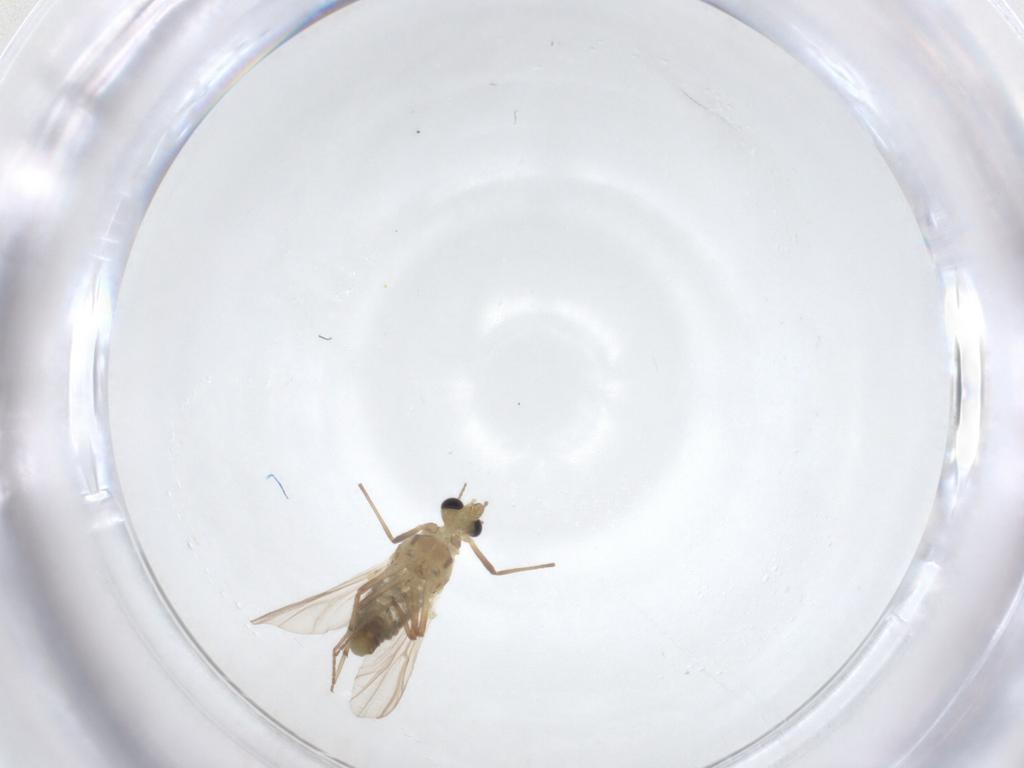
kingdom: Animalia
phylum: Arthropoda
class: Insecta
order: Diptera
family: Chironomidae
